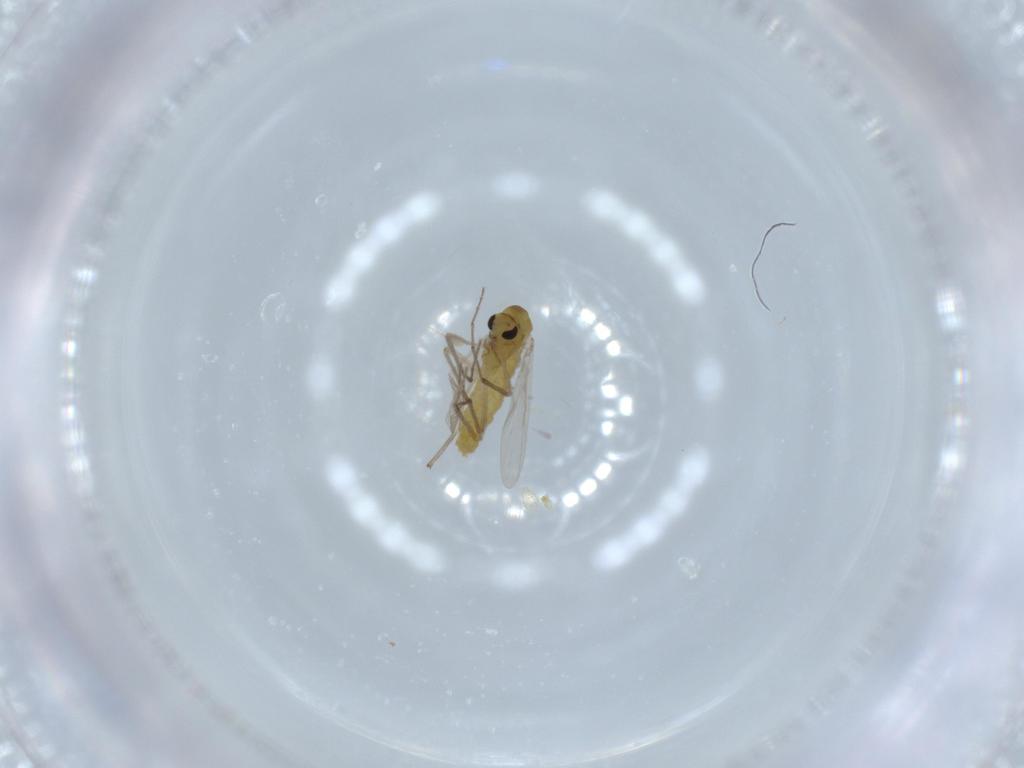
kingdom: Animalia
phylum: Arthropoda
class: Insecta
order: Diptera
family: Chironomidae
